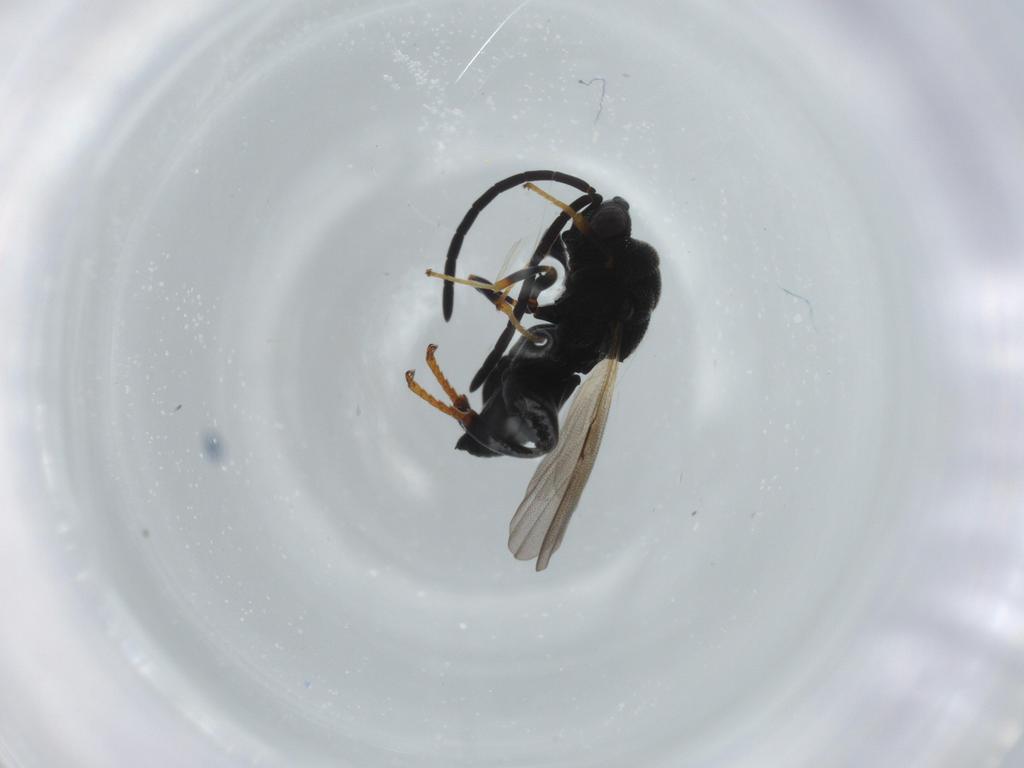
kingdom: Animalia
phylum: Arthropoda
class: Insecta
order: Hymenoptera
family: Formicidae
